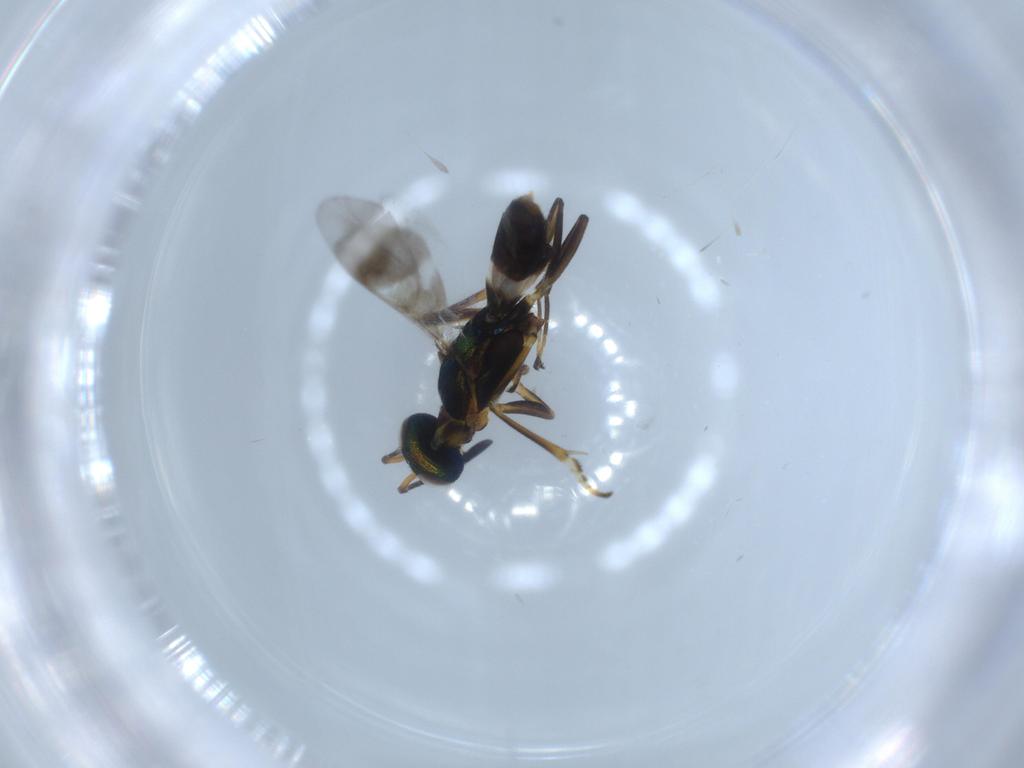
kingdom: Animalia
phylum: Arthropoda
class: Insecta
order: Hymenoptera
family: Eupelmidae
